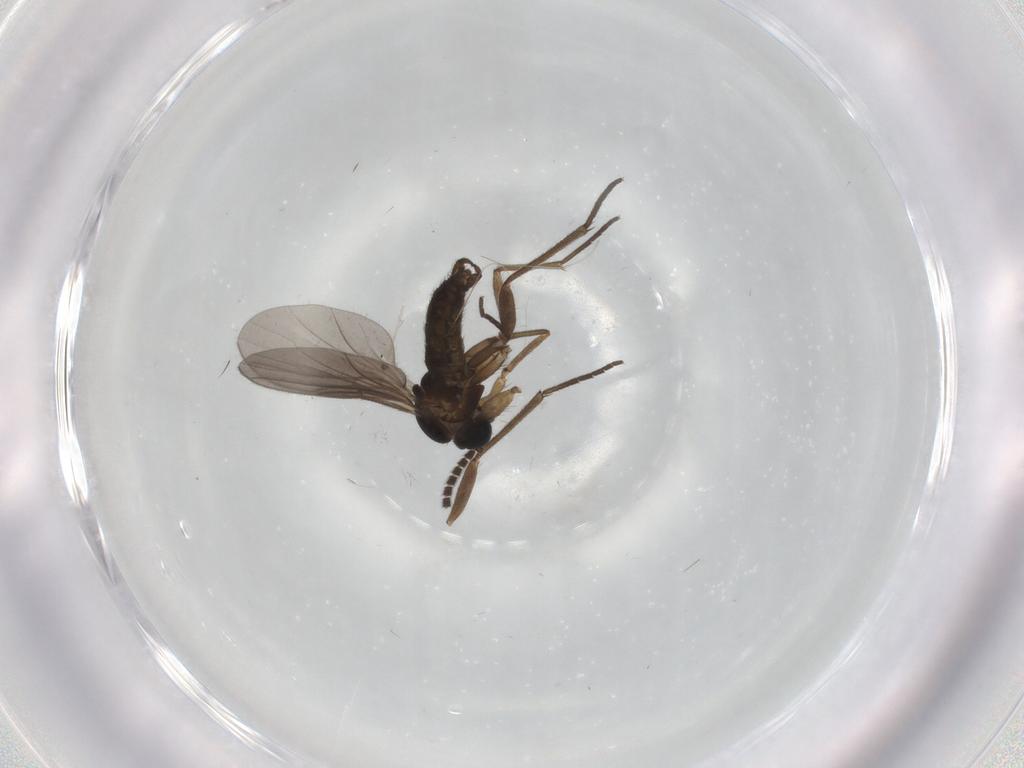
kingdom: Animalia
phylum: Arthropoda
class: Insecta
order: Diptera
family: Sciaridae
